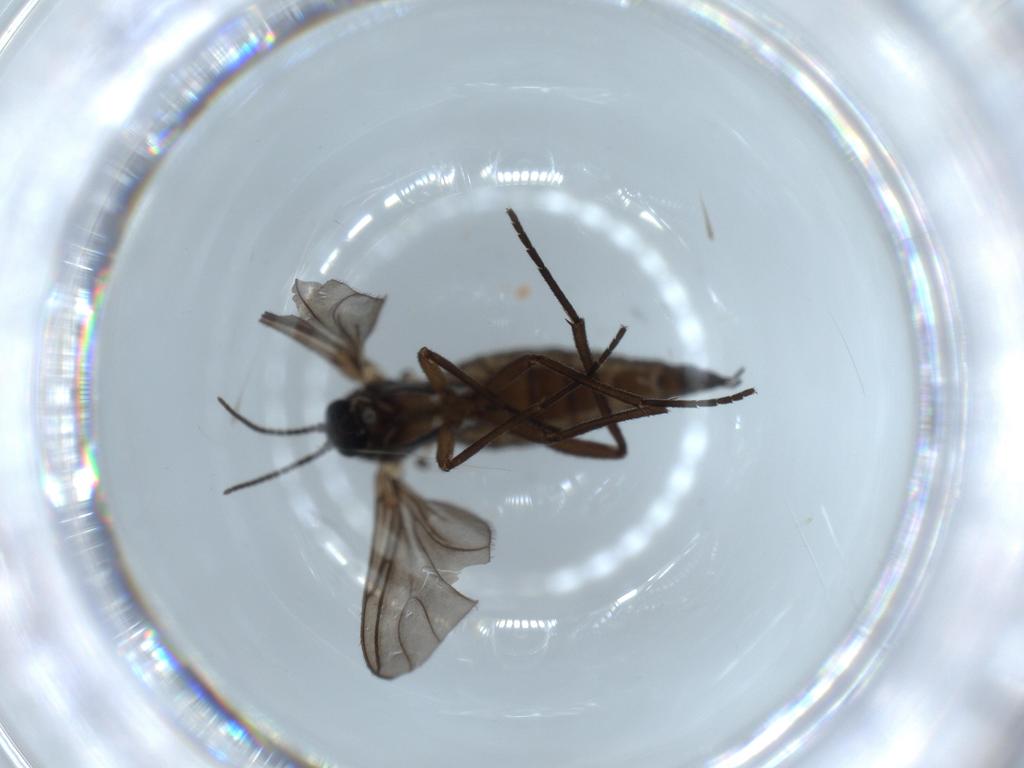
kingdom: Animalia
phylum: Arthropoda
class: Insecta
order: Diptera
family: Sciaridae
